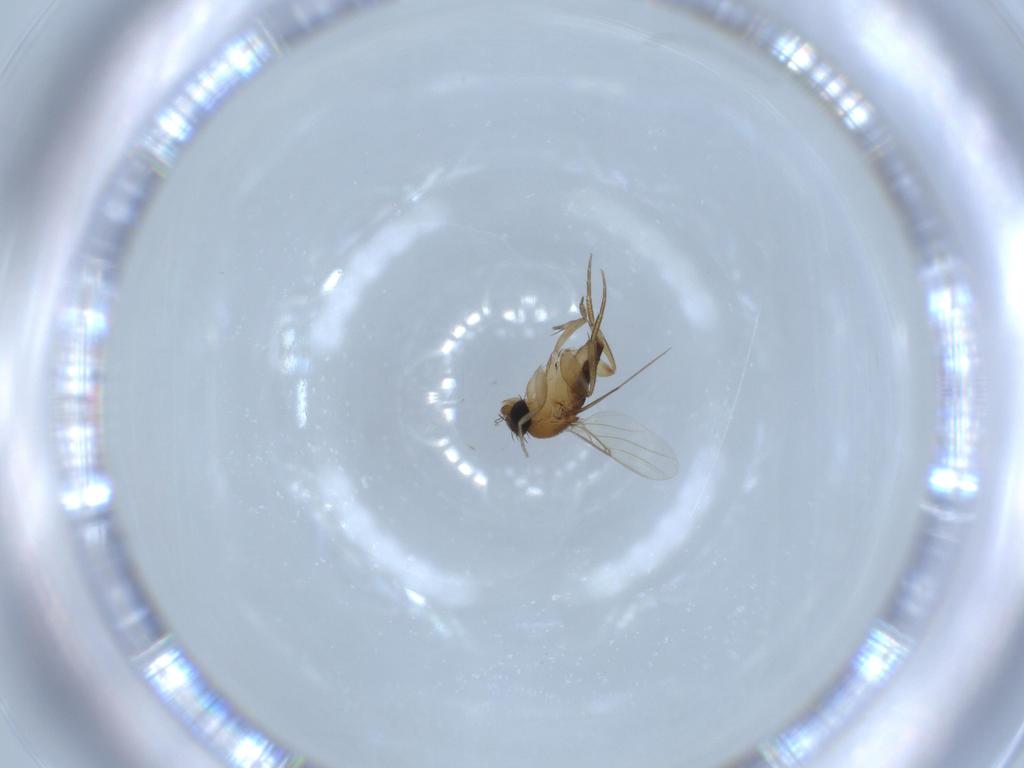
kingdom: Animalia
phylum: Arthropoda
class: Insecta
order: Diptera
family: Phoridae
